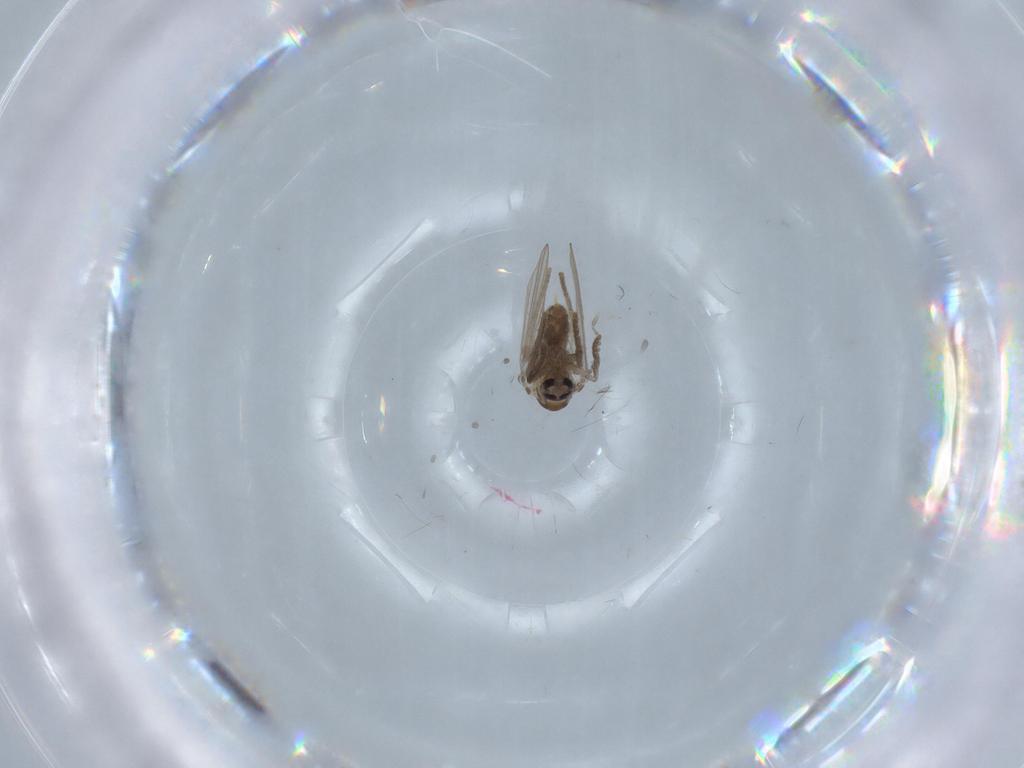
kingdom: Animalia
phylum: Arthropoda
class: Insecta
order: Diptera
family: Psychodidae
